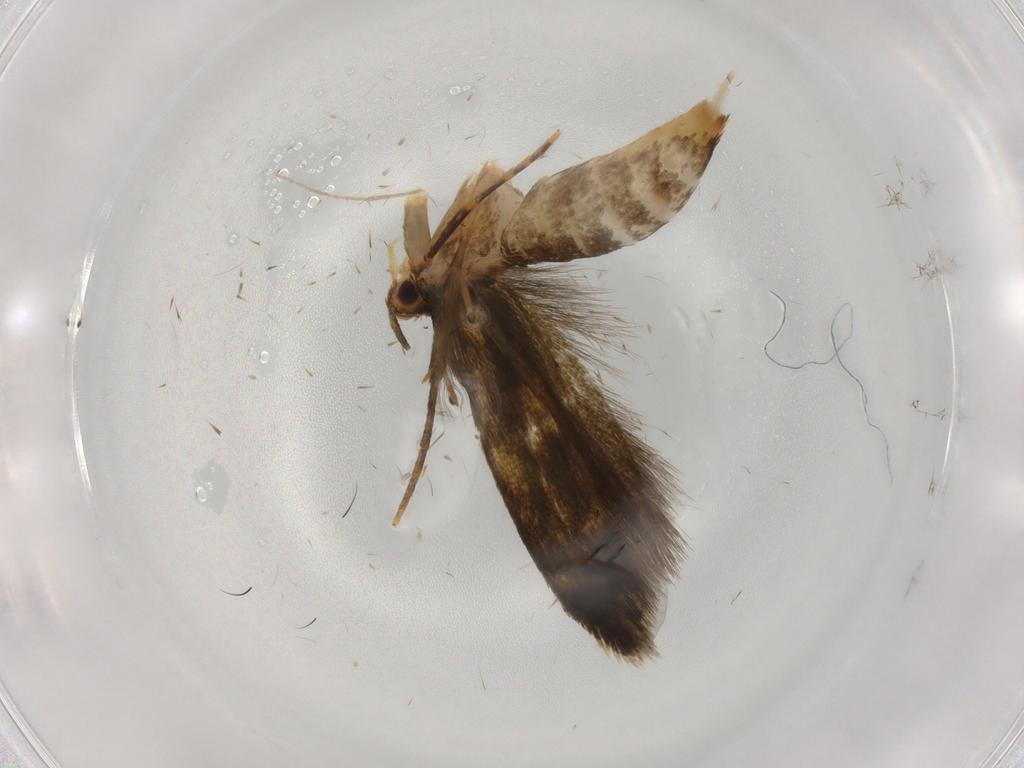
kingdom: Animalia
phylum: Arthropoda
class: Insecta
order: Lepidoptera
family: Tineidae
